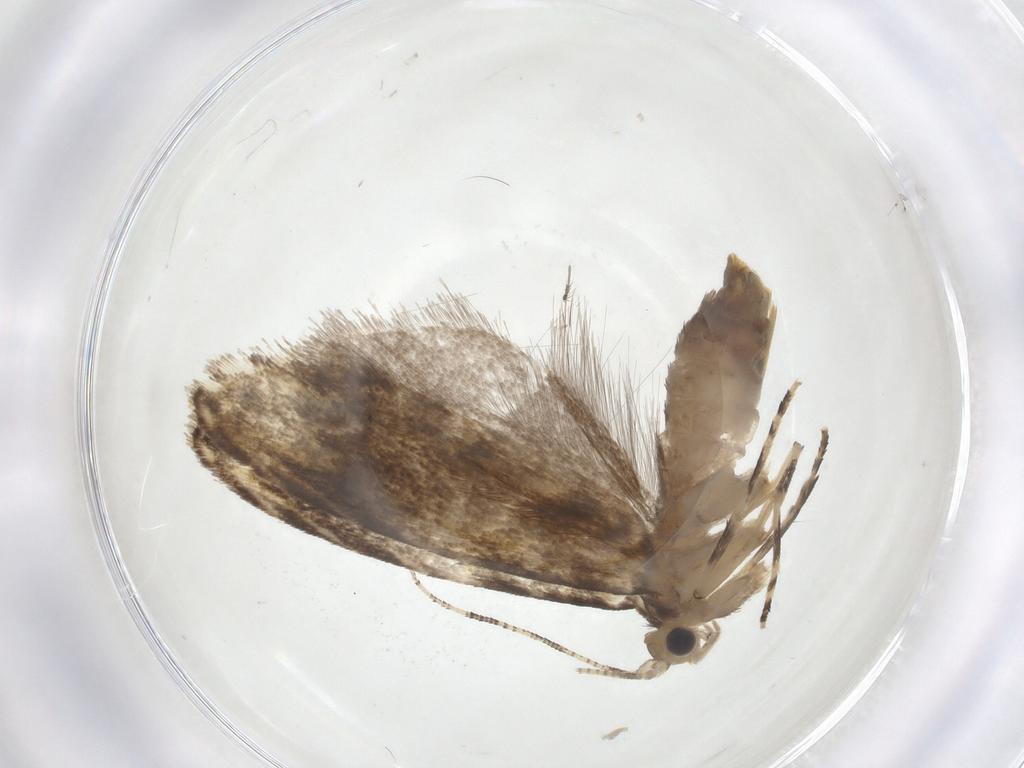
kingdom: Animalia
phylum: Arthropoda
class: Insecta
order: Lepidoptera
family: Tineidae
